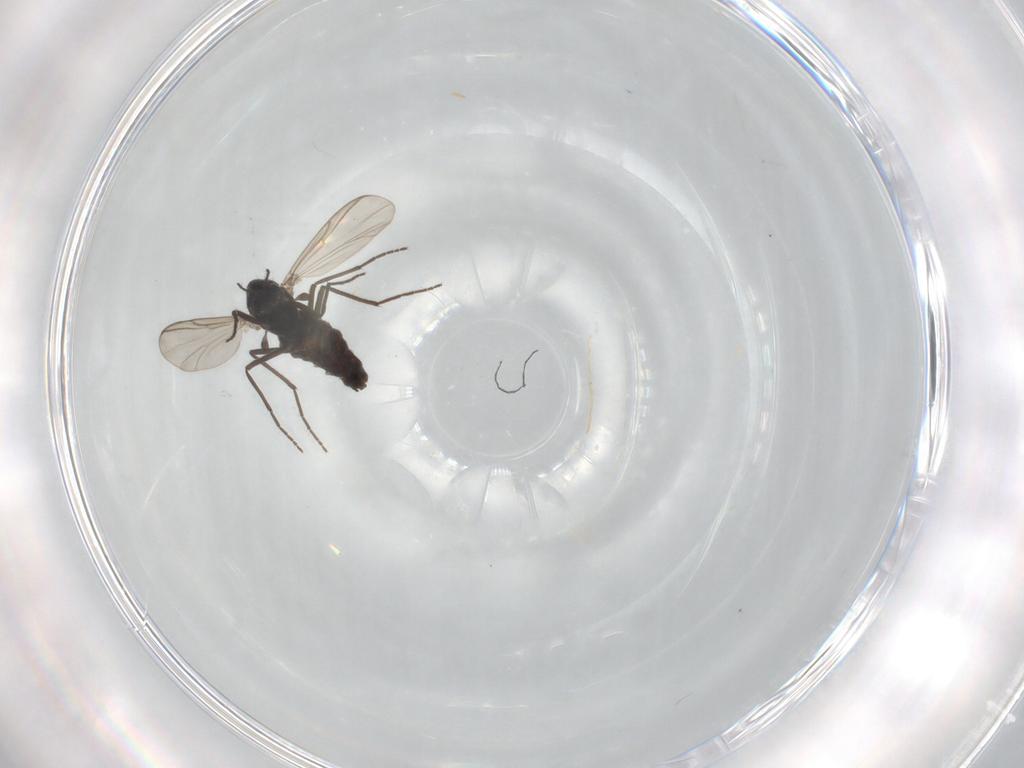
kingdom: Animalia
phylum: Arthropoda
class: Insecta
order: Diptera
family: Chironomidae
